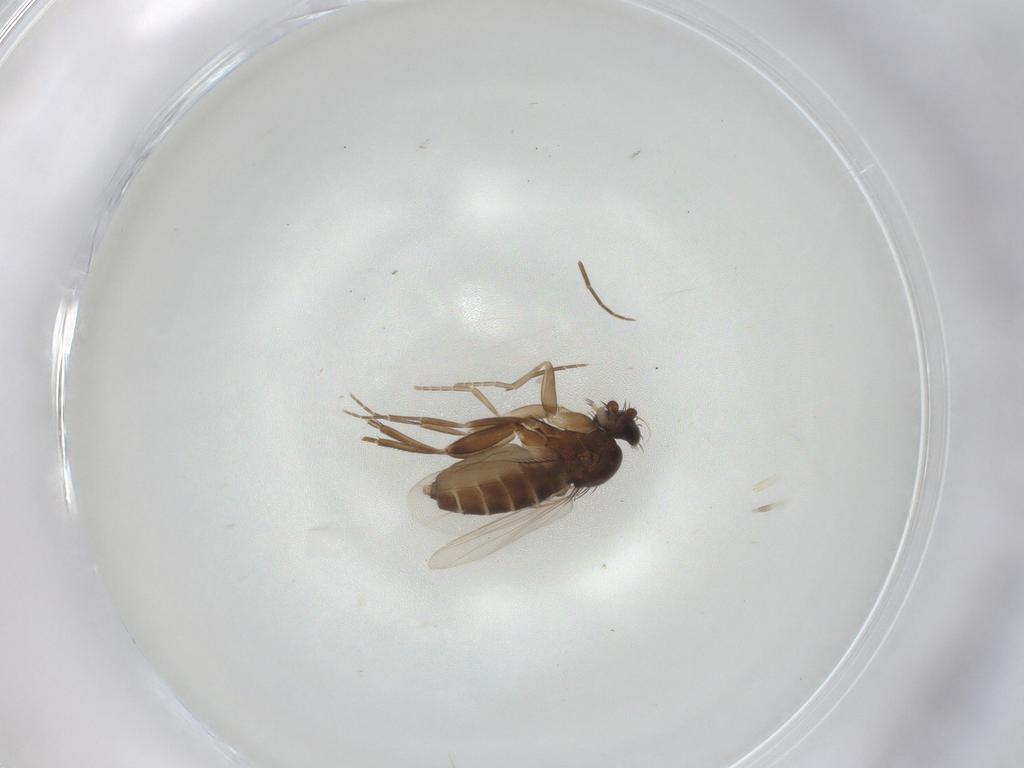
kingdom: Animalia
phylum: Arthropoda
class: Insecta
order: Diptera
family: Phoridae
